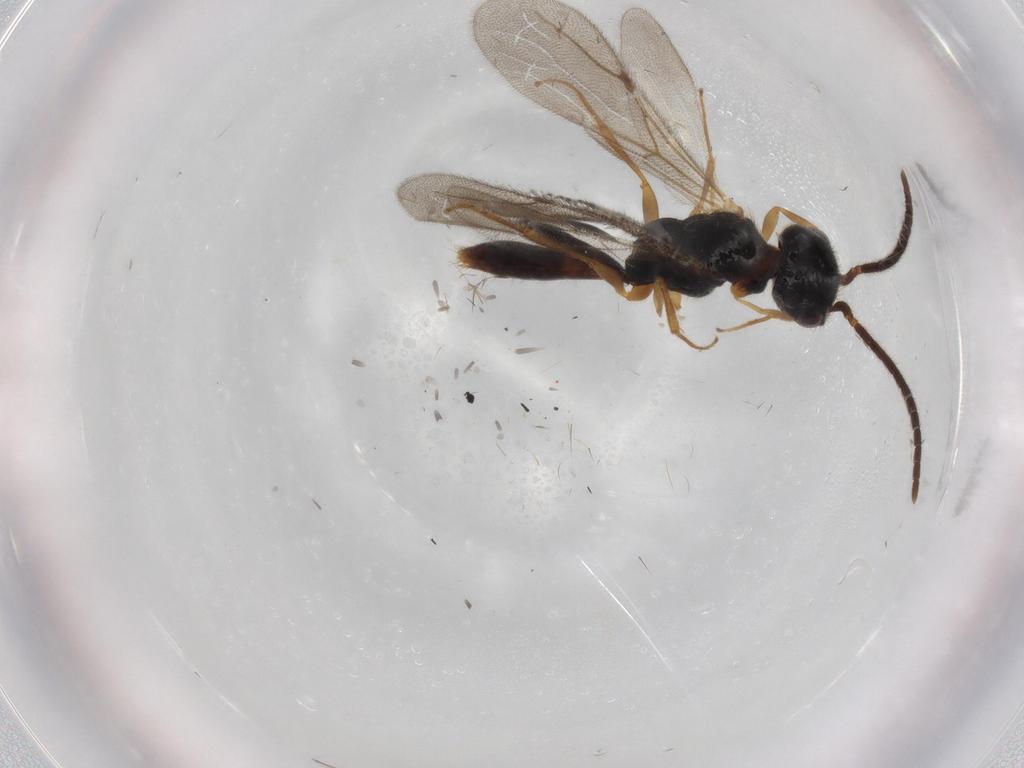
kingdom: Animalia
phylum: Arthropoda
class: Insecta
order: Hymenoptera
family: Bethylidae
